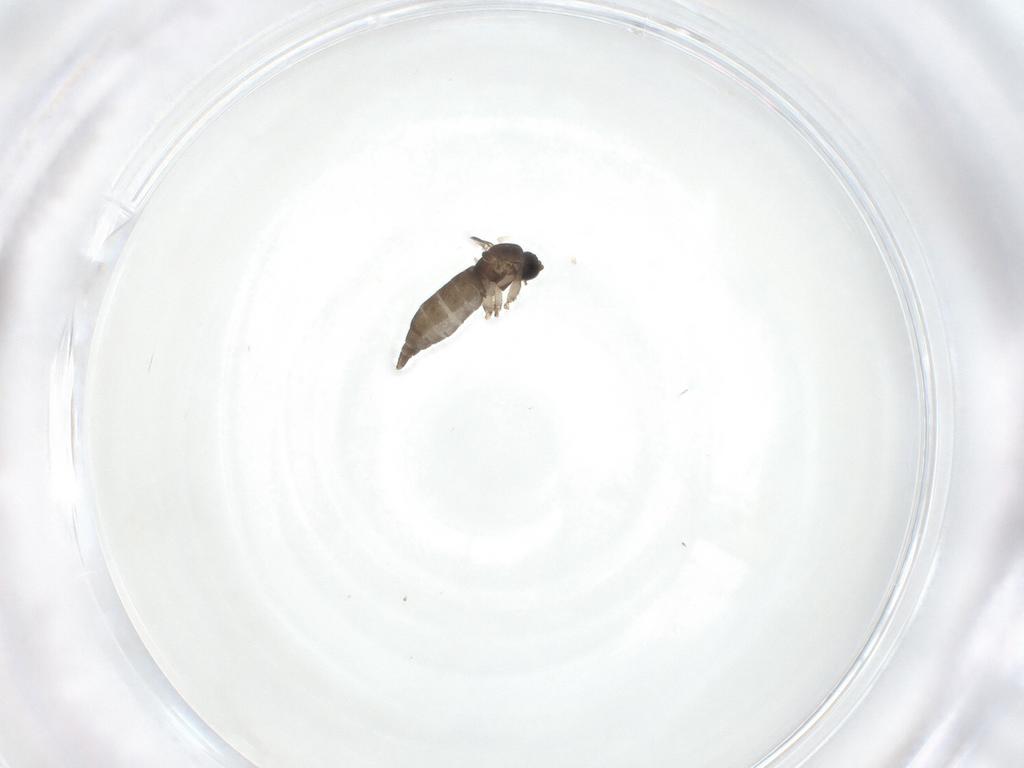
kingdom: Animalia
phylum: Arthropoda
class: Insecta
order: Diptera
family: Sciaridae
